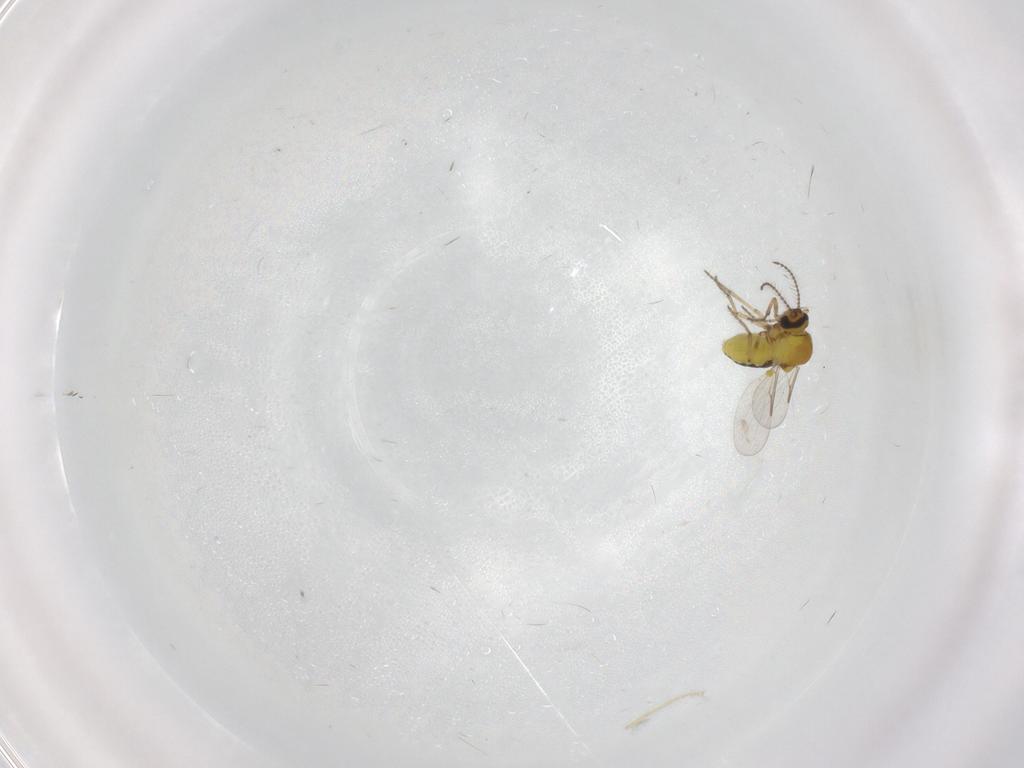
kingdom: Animalia
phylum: Arthropoda
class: Insecta
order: Diptera
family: Ceratopogonidae
